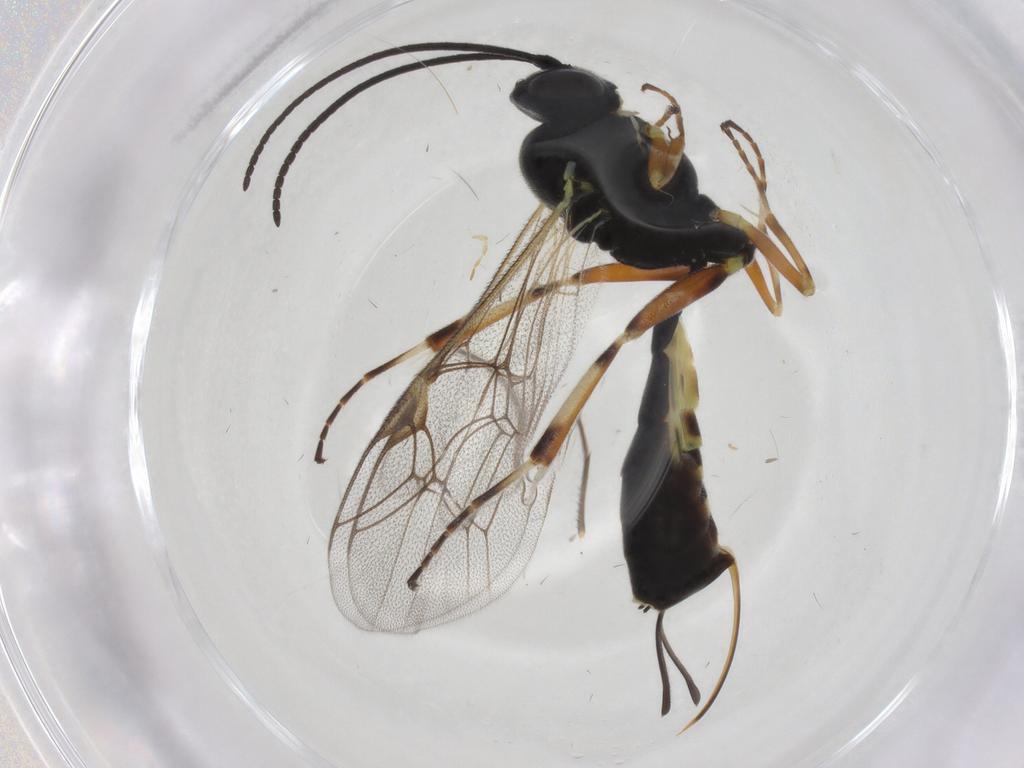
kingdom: Animalia
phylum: Arthropoda
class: Insecta
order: Hymenoptera
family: Ichneumonidae
